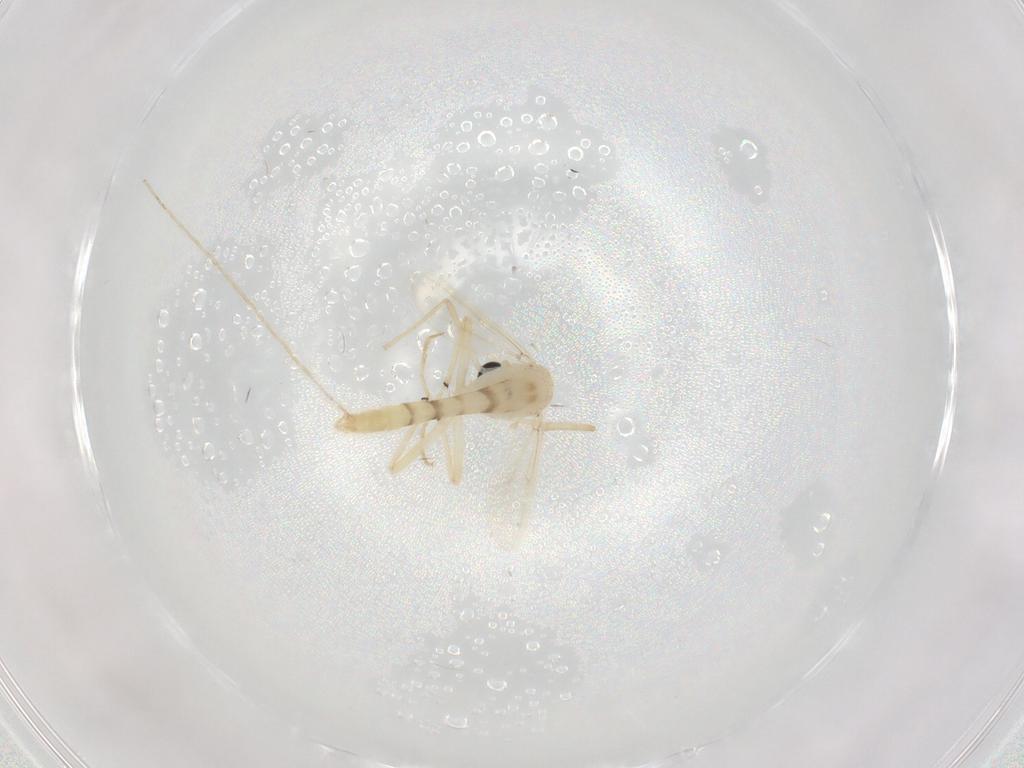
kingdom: Animalia
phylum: Arthropoda
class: Insecta
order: Diptera
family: Chironomidae
